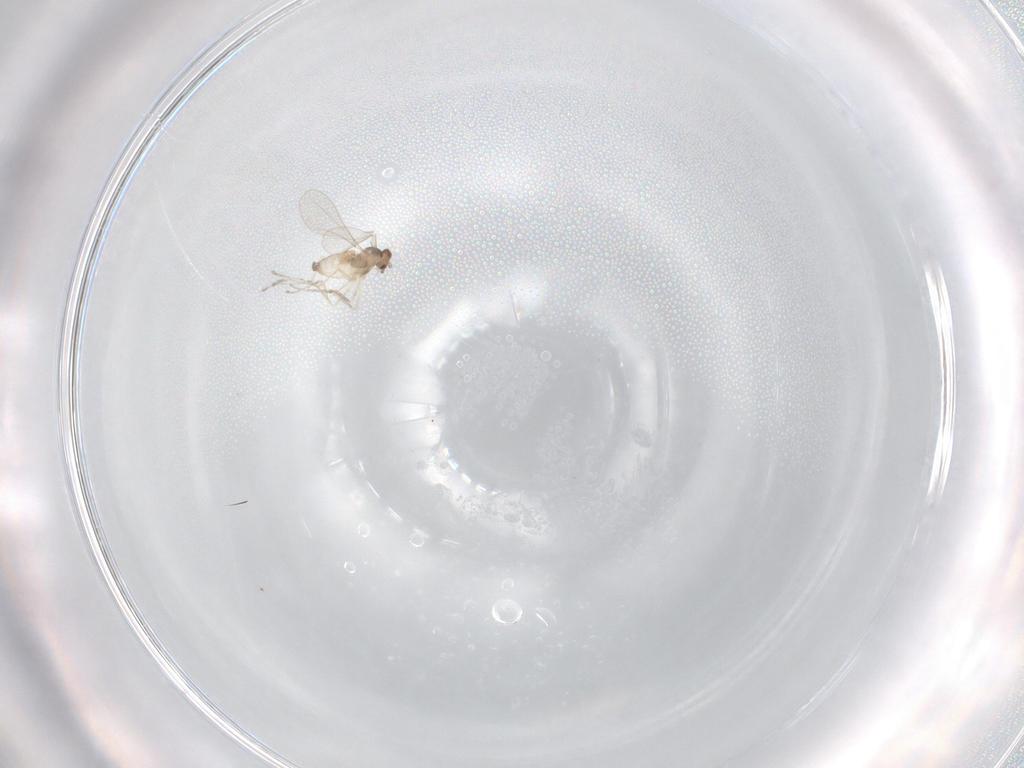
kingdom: Animalia
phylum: Arthropoda
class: Insecta
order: Diptera
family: Cecidomyiidae
